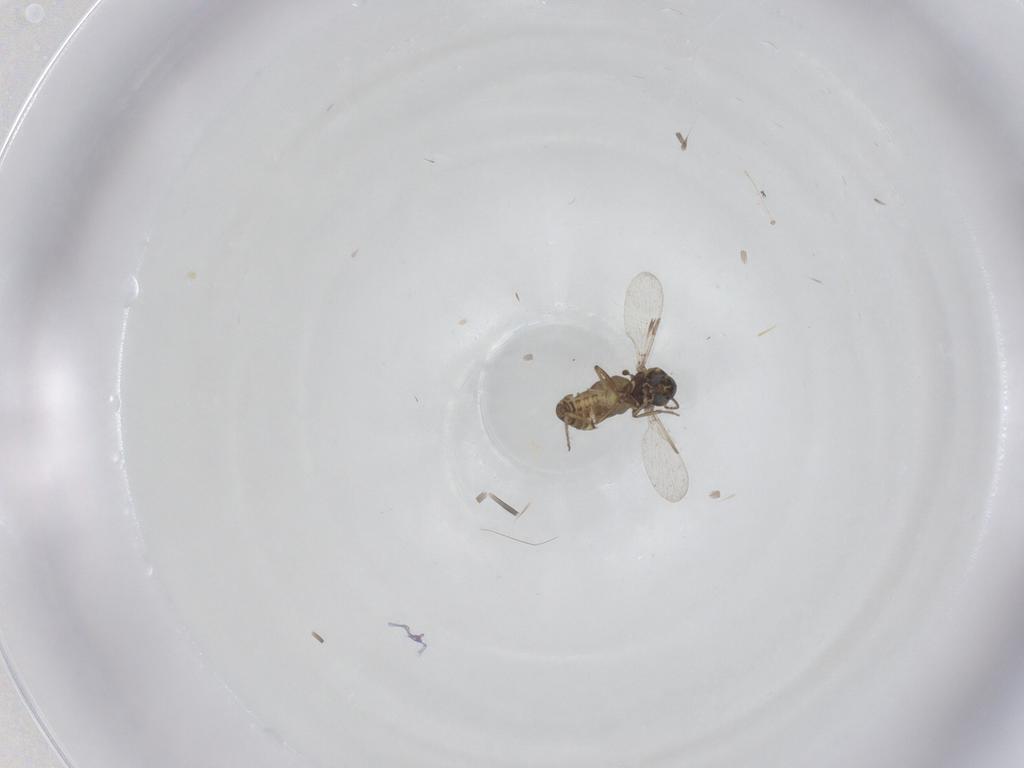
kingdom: Animalia
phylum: Arthropoda
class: Insecta
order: Diptera
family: Ceratopogonidae
